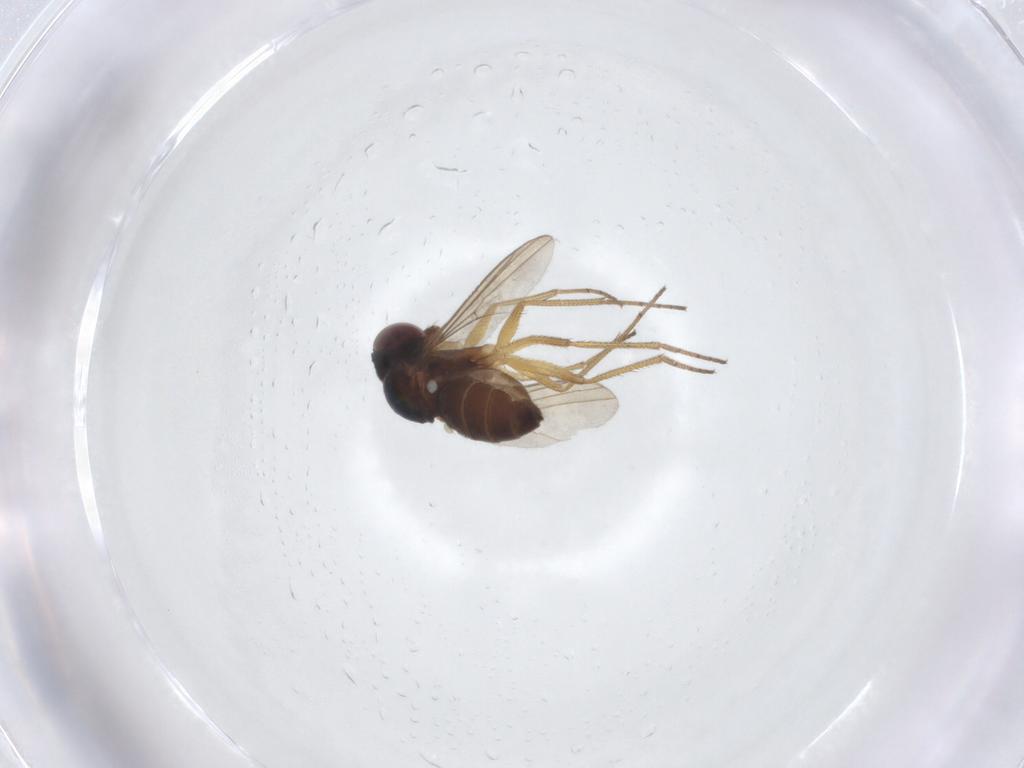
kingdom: Animalia
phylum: Arthropoda
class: Insecta
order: Diptera
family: Dolichopodidae
